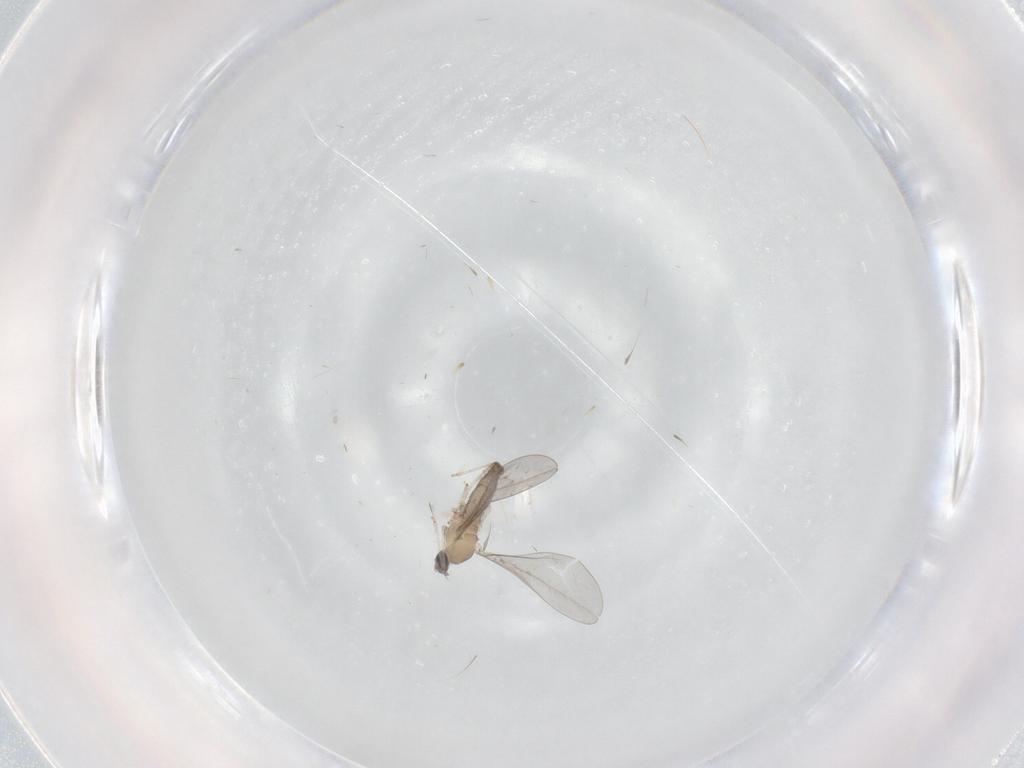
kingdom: Animalia
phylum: Arthropoda
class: Insecta
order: Diptera
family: Cecidomyiidae
